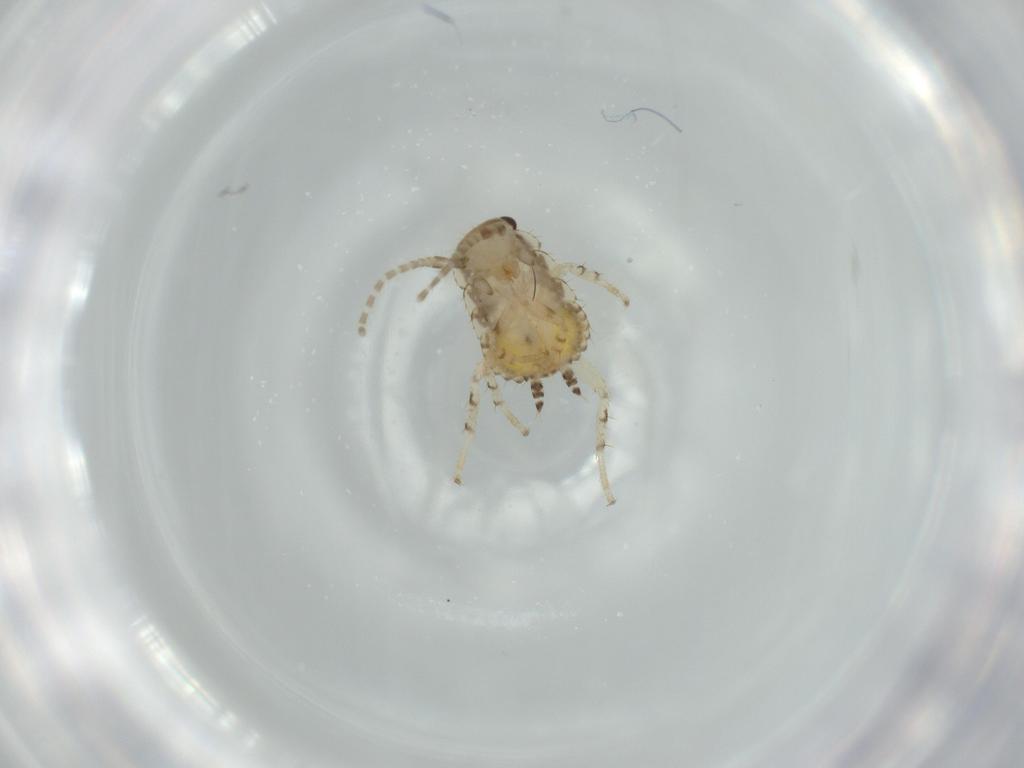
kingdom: Animalia
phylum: Arthropoda
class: Insecta
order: Blattodea
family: Ectobiidae
